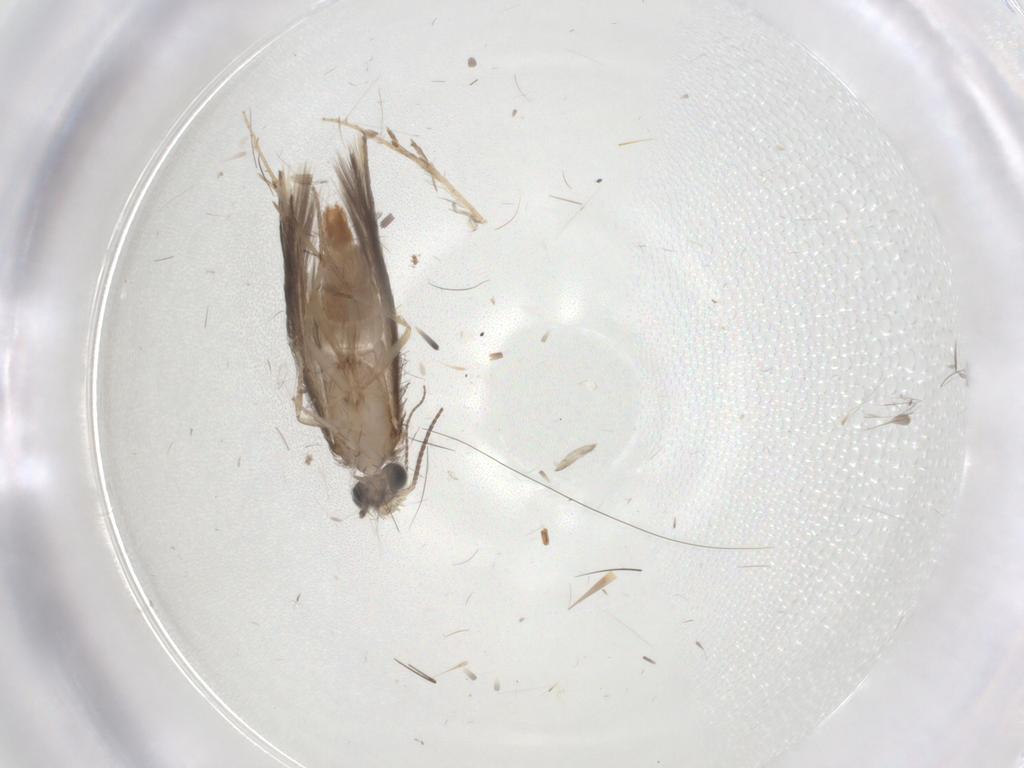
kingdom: Animalia
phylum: Arthropoda
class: Insecta
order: Trichoptera
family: Hydroptilidae
